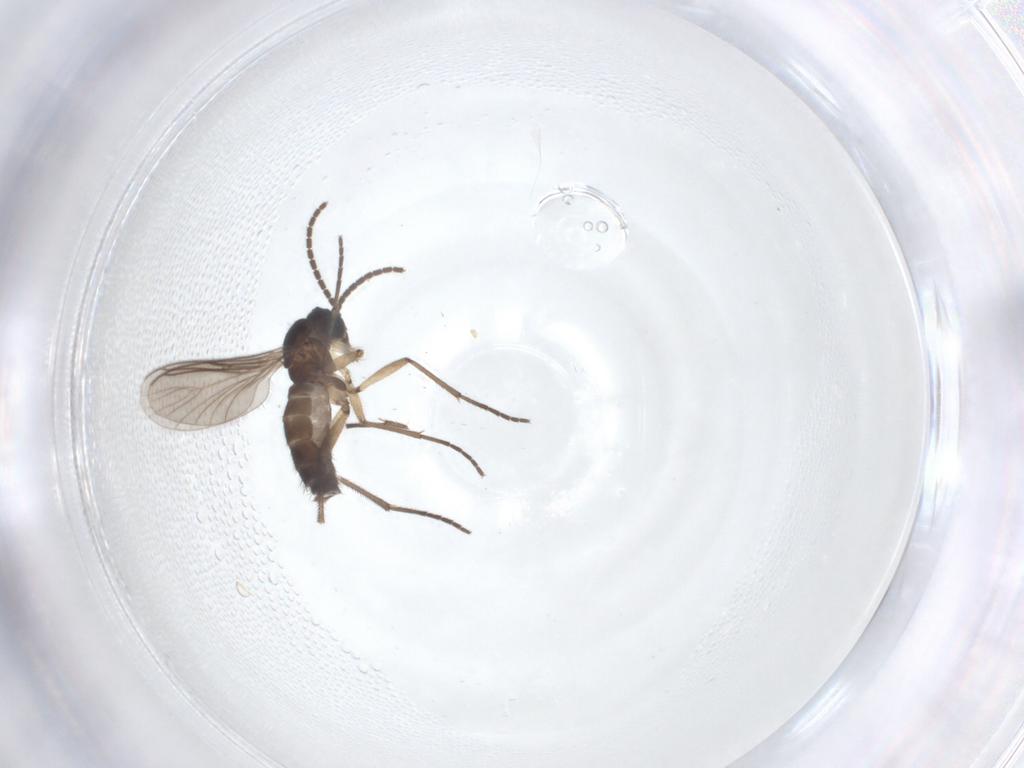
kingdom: Animalia
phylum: Arthropoda
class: Insecta
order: Diptera
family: Sciaridae
